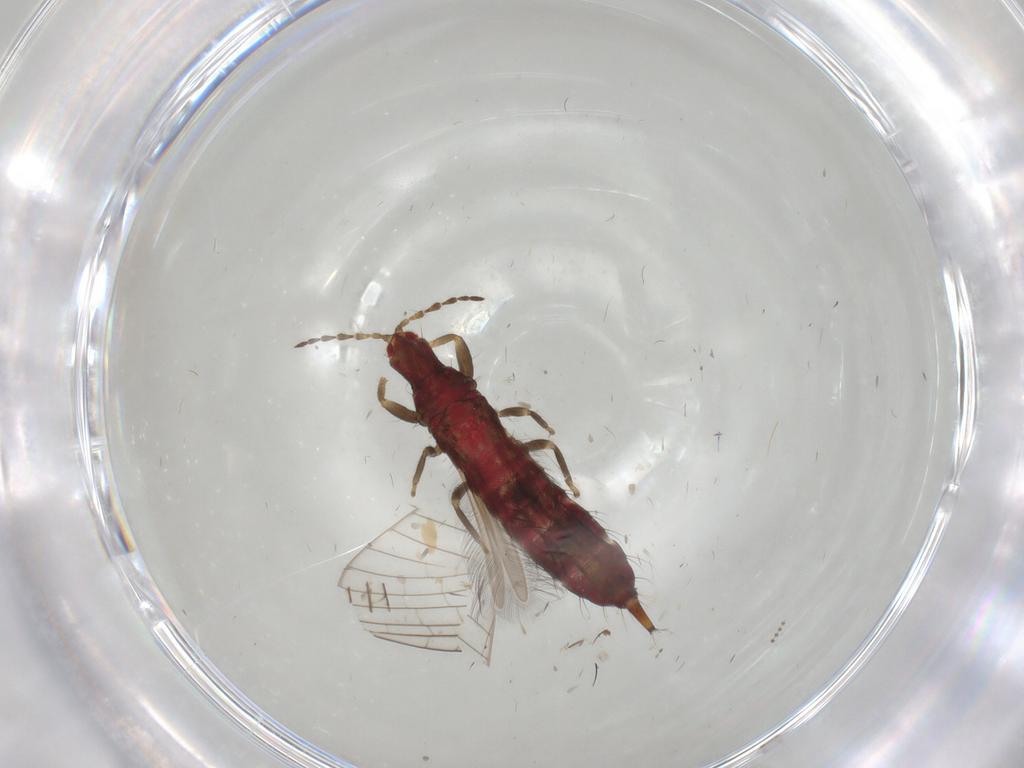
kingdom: Animalia
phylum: Arthropoda
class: Insecta
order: Thysanoptera
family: Phlaeothripidae
